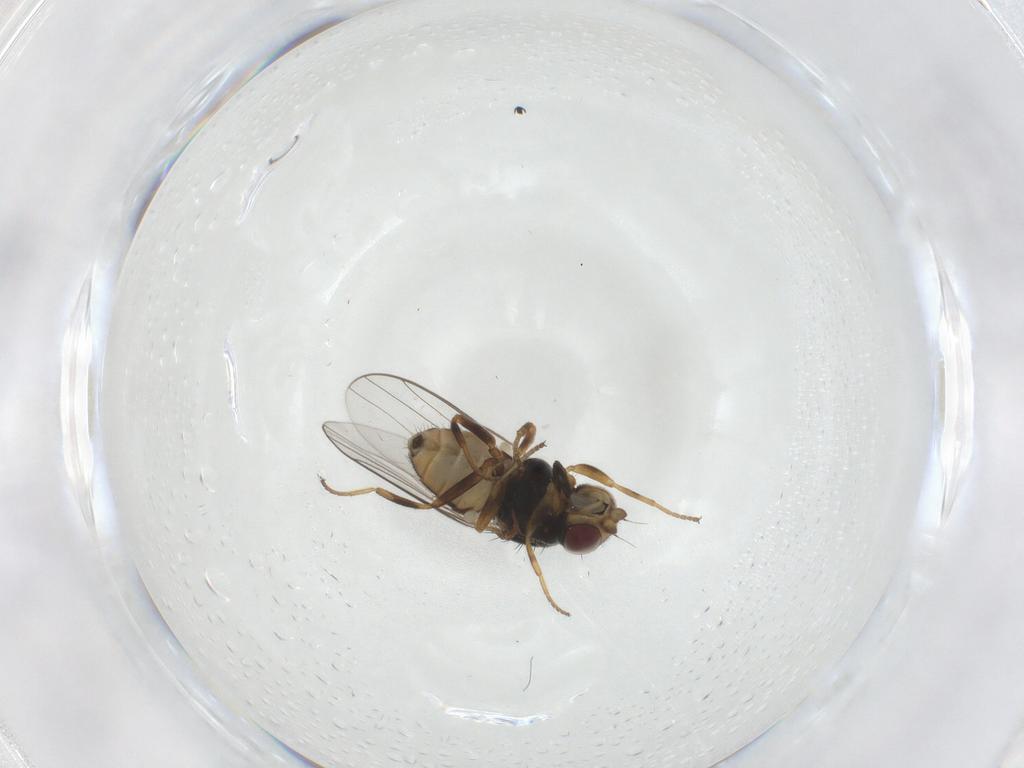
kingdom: Animalia
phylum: Arthropoda
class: Insecta
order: Diptera
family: Chloropidae
